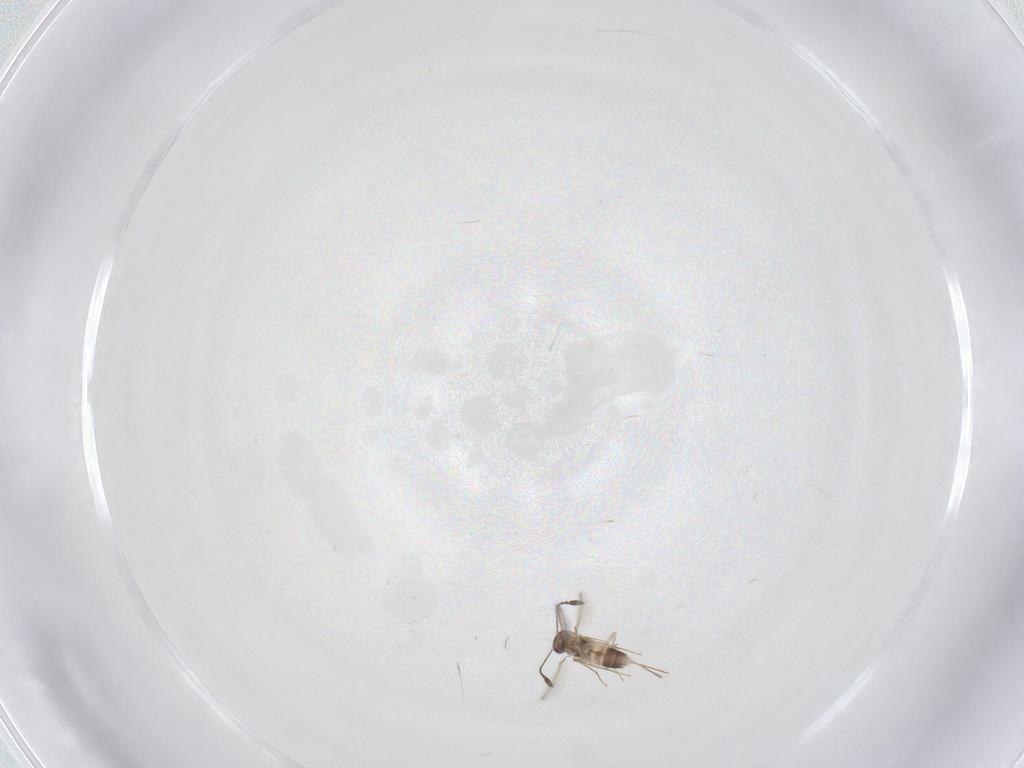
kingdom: Animalia
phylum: Arthropoda
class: Insecta
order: Hymenoptera
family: Mymaridae
